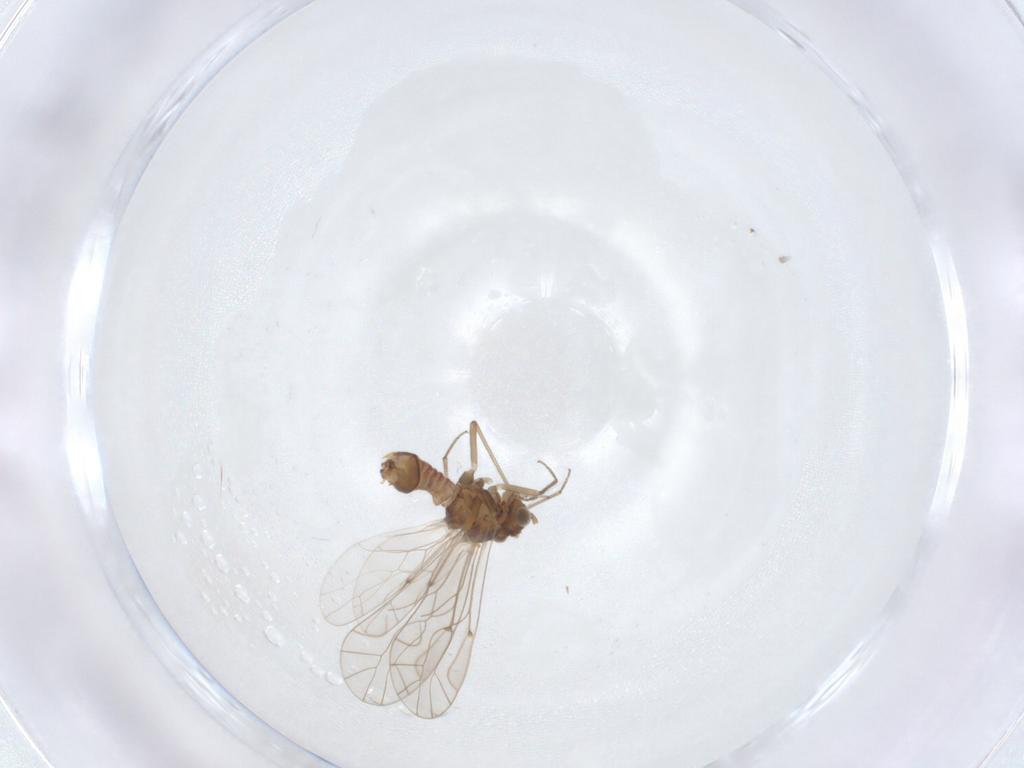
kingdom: Animalia
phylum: Arthropoda
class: Insecta
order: Psocodea
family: Lachesillidae
